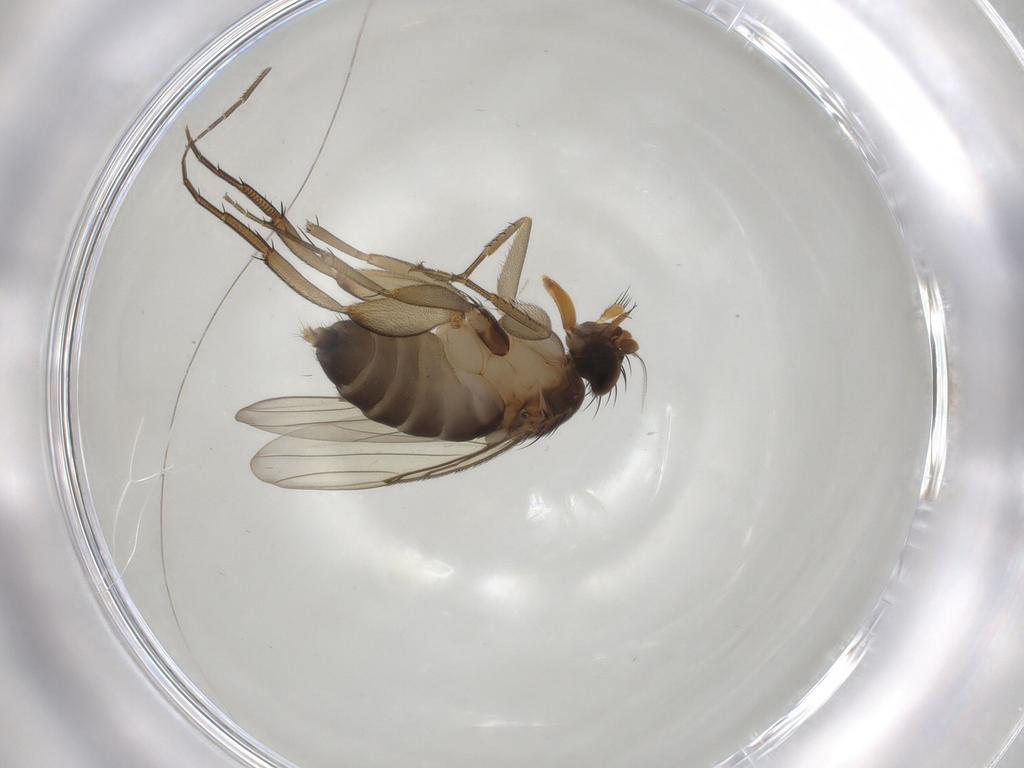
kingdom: Animalia
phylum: Arthropoda
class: Insecta
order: Diptera
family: Phoridae
